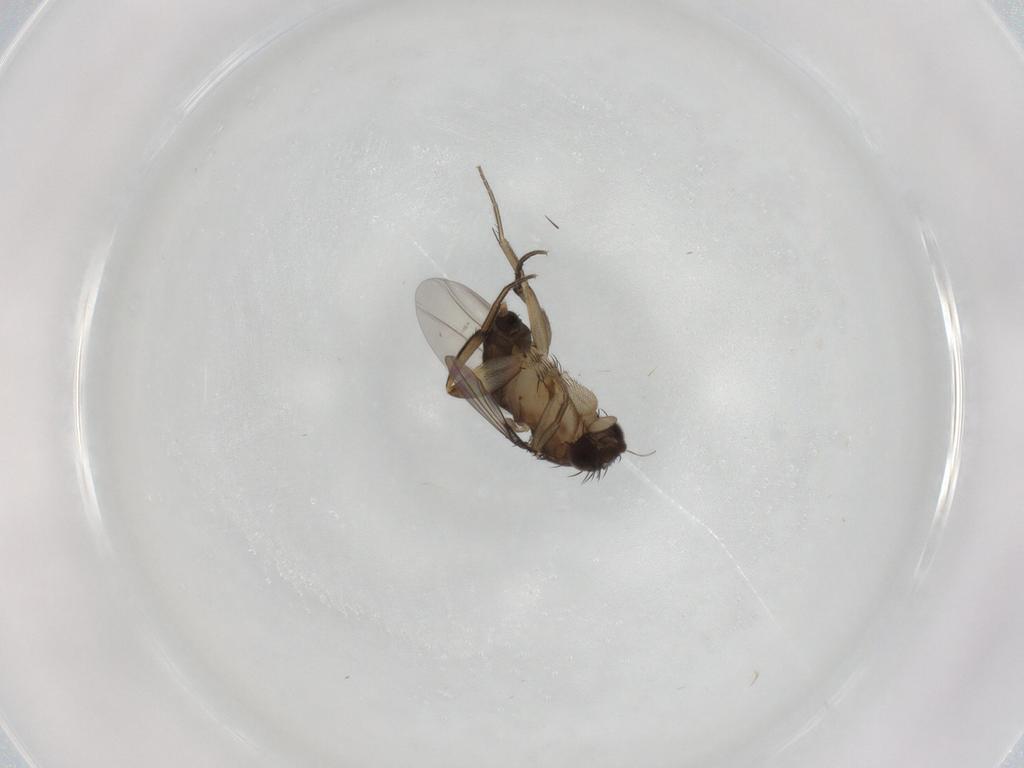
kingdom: Animalia
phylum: Arthropoda
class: Insecta
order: Diptera
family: Phoridae
